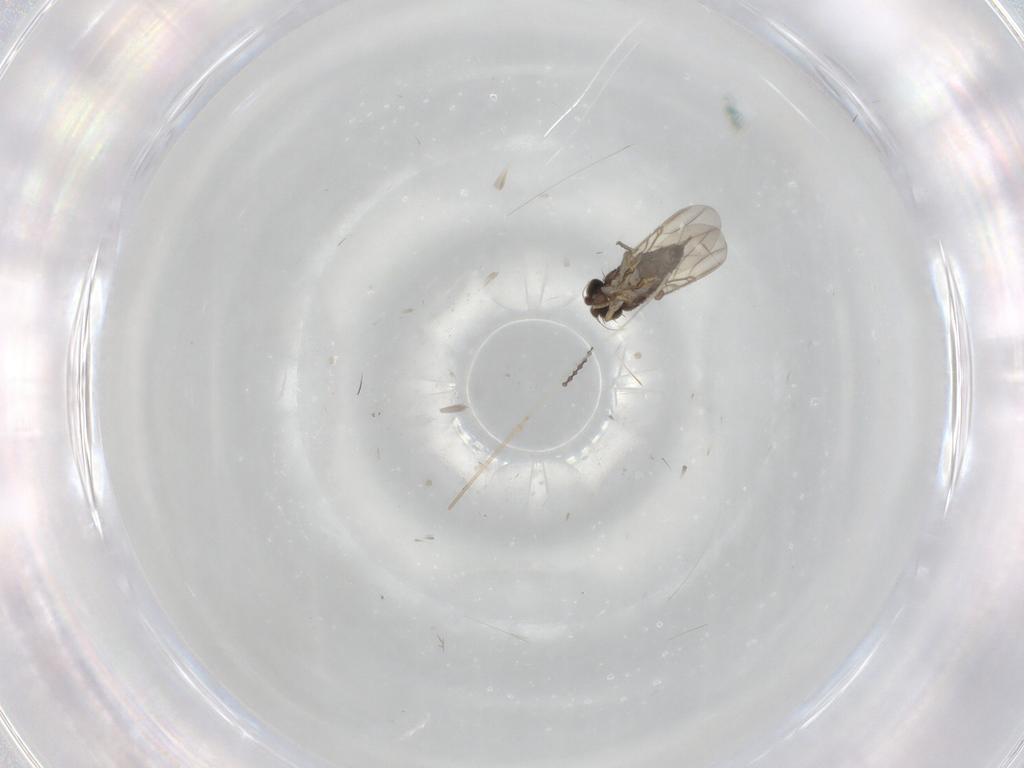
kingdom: Animalia
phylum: Arthropoda
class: Insecta
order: Diptera
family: Phoridae
